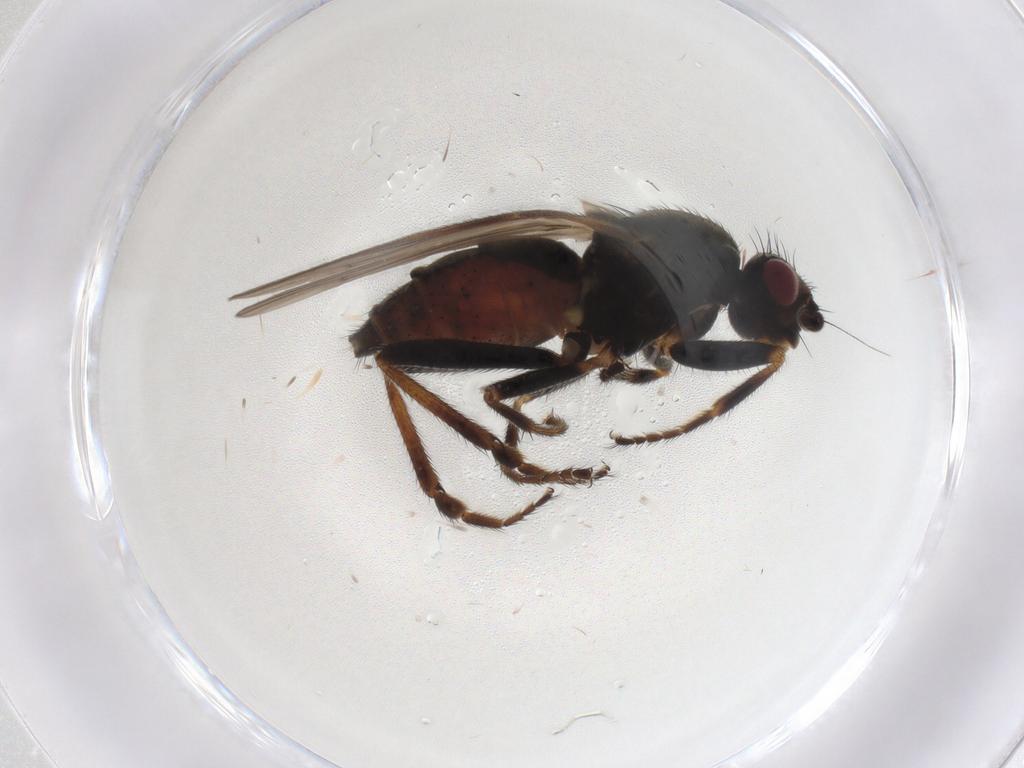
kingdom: Animalia
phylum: Arthropoda
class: Insecta
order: Diptera
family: Sphaeroceridae
